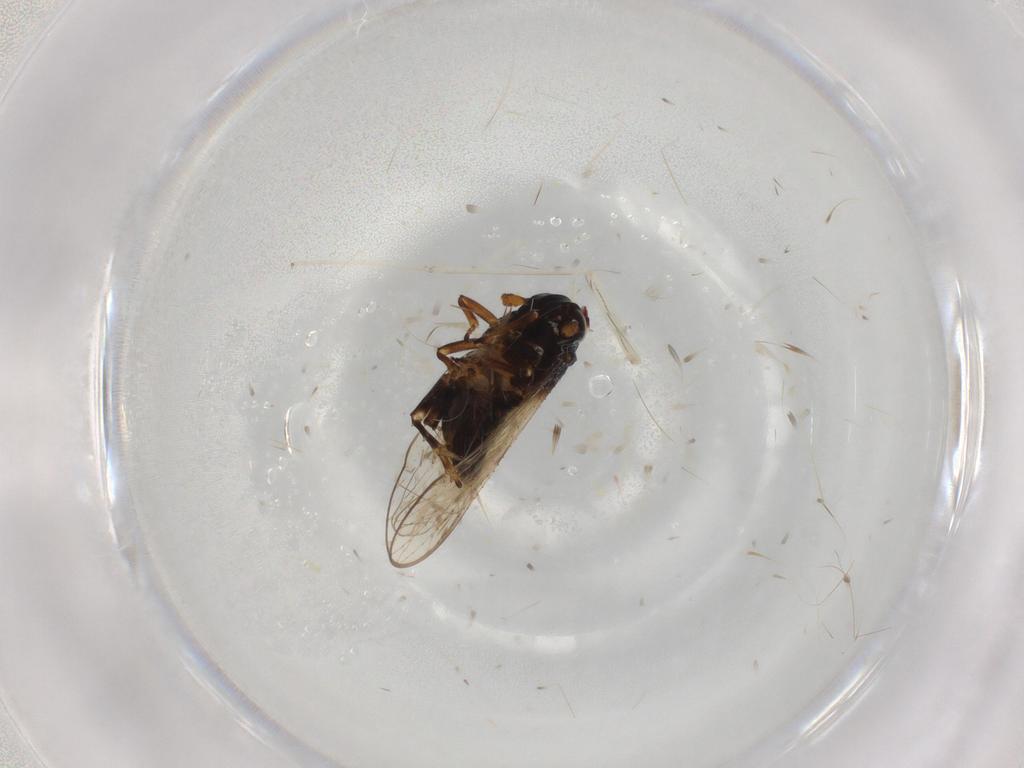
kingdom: Animalia
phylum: Arthropoda
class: Insecta
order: Hemiptera
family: Delphacidae
